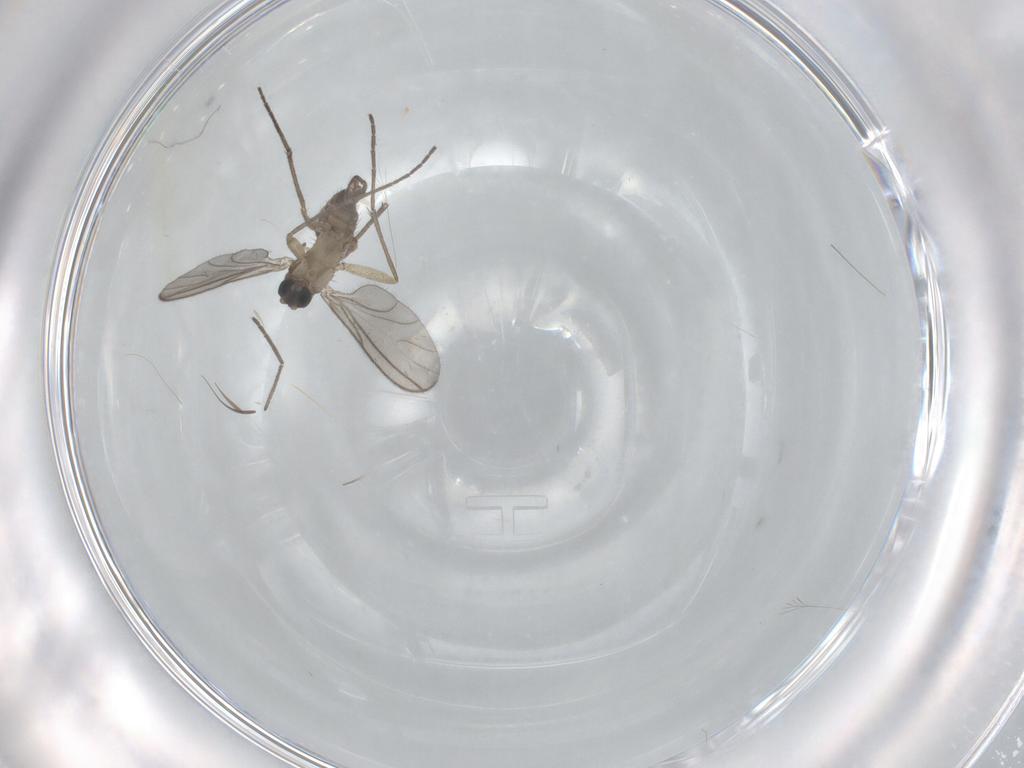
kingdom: Animalia
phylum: Arthropoda
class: Insecta
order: Diptera
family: Cecidomyiidae
